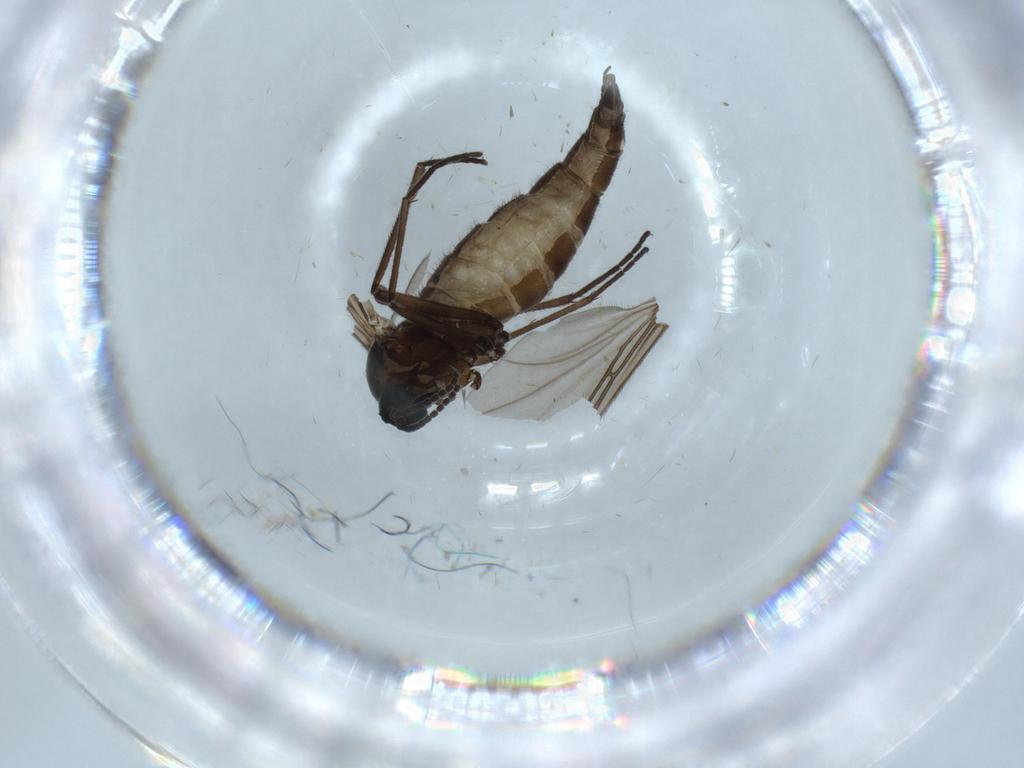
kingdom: Animalia
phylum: Arthropoda
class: Insecta
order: Diptera
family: Sciaridae
